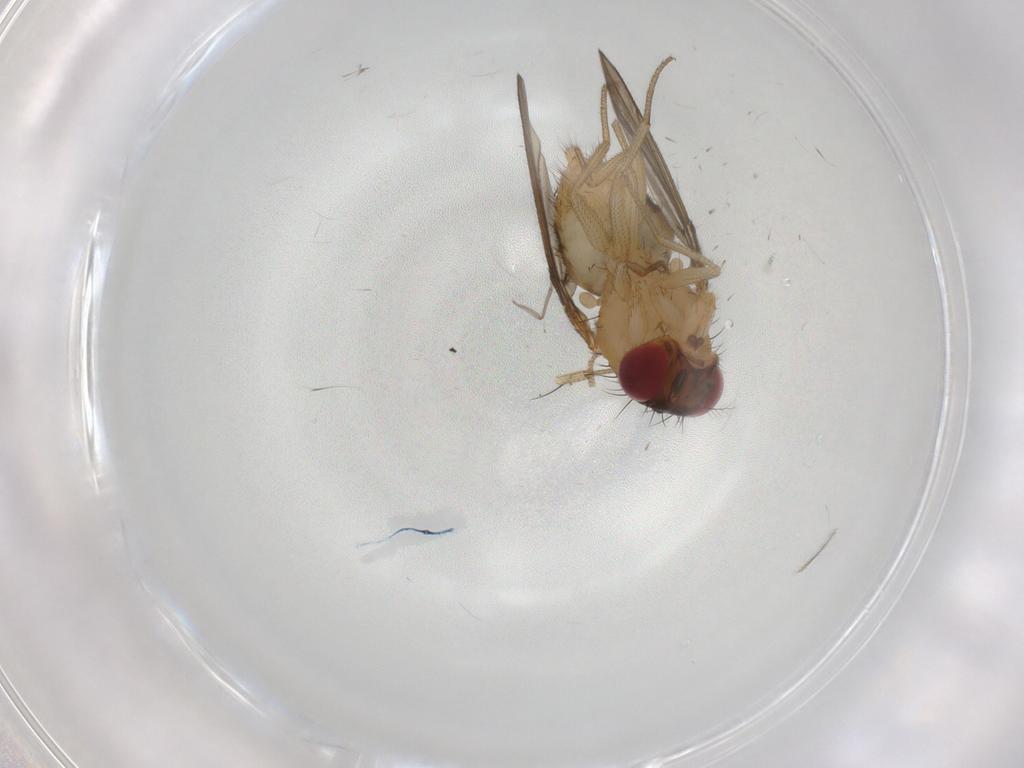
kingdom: Animalia
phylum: Arthropoda
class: Insecta
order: Diptera
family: Drosophilidae
